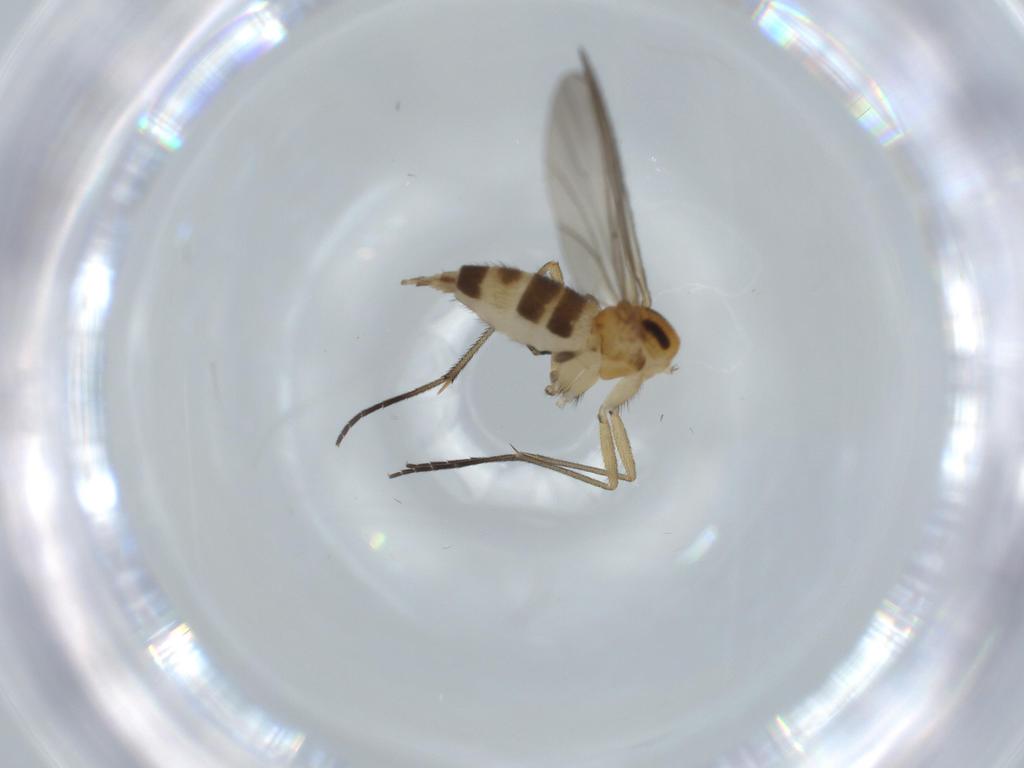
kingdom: Animalia
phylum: Arthropoda
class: Insecta
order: Diptera
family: Sciaridae
